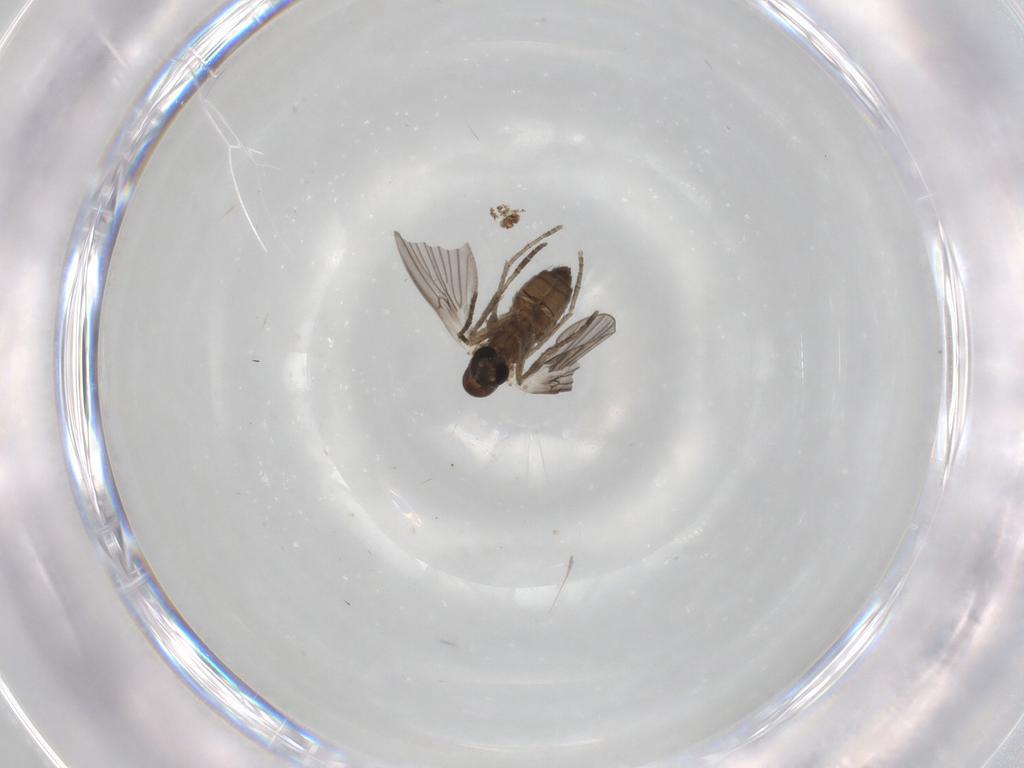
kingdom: Animalia
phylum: Arthropoda
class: Insecta
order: Diptera
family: Cecidomyiidae
